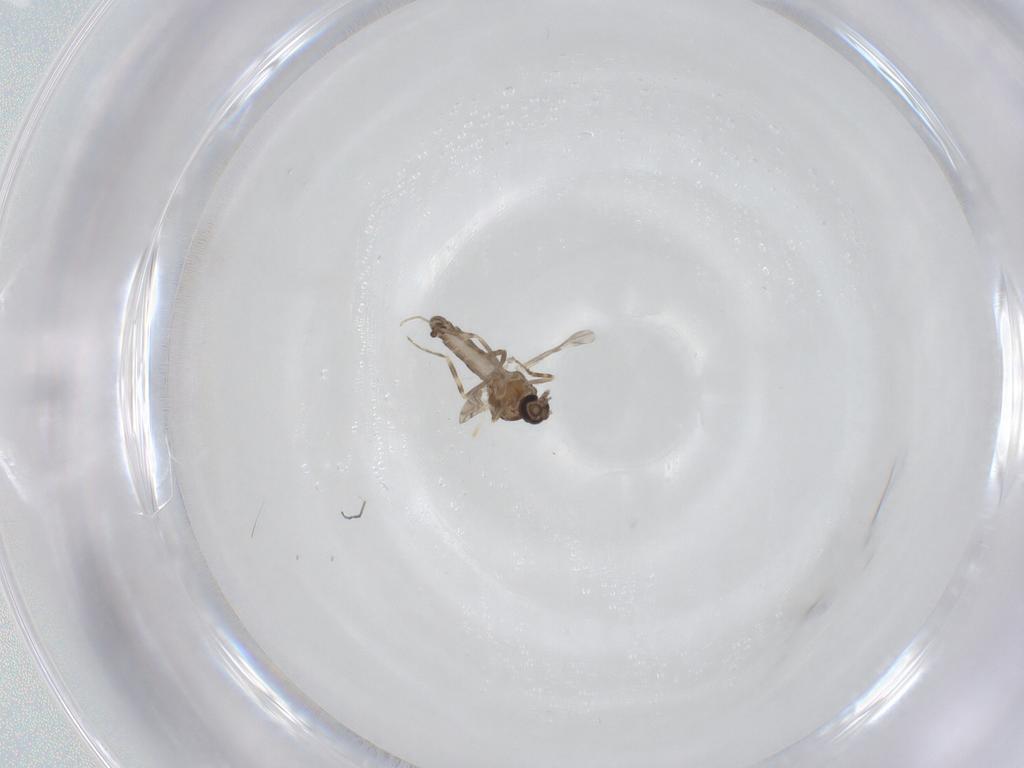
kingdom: Animalia
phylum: Arthropoda
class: Insecta
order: Diptera
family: Ceratopogonidae
